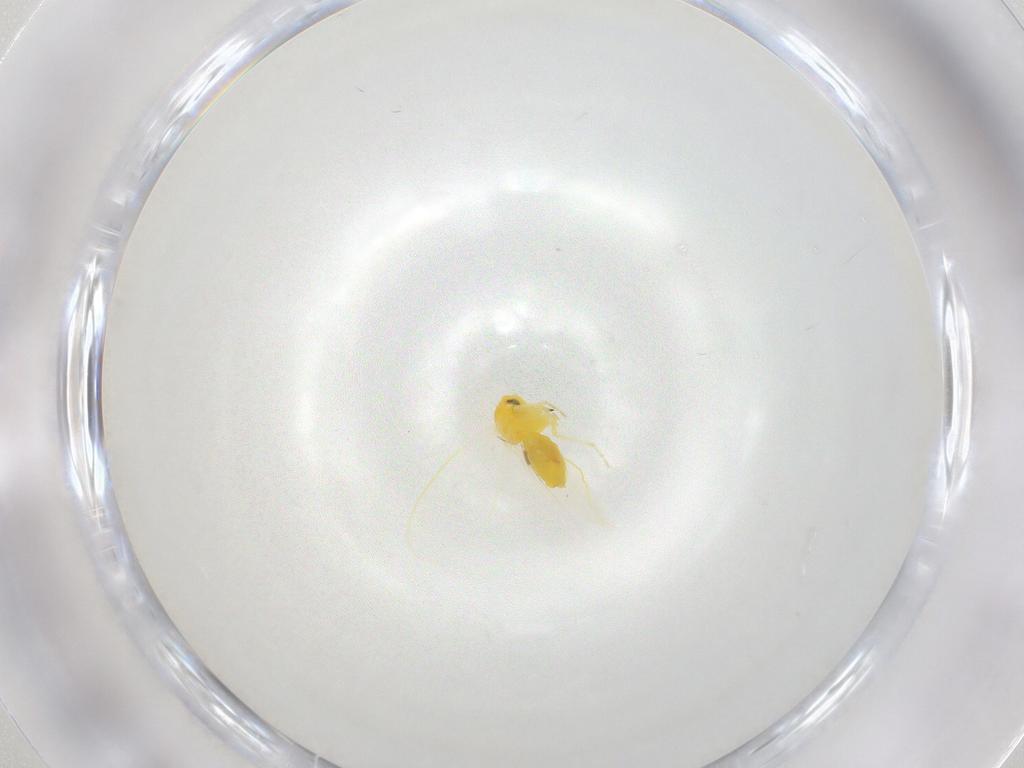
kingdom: Animalia
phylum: Arthropoda
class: Insecta
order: Hemiptera
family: Aleyrodidae
